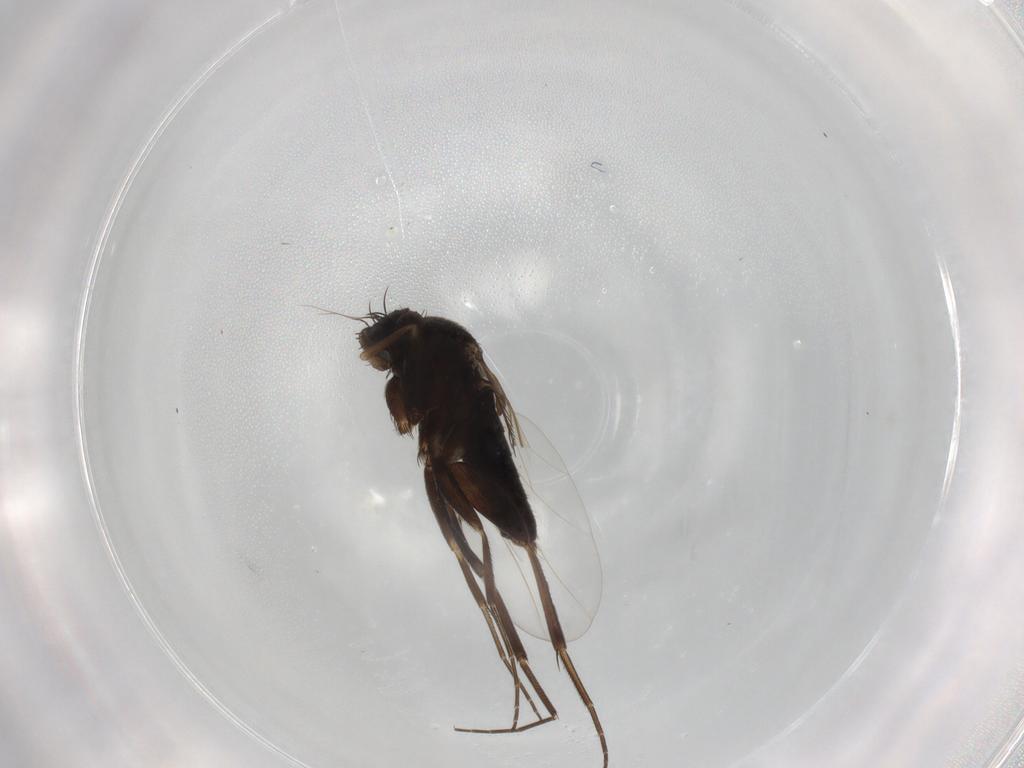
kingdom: Animalia
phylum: Arthropoda
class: Insecta
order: Diptera
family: Phoridae
